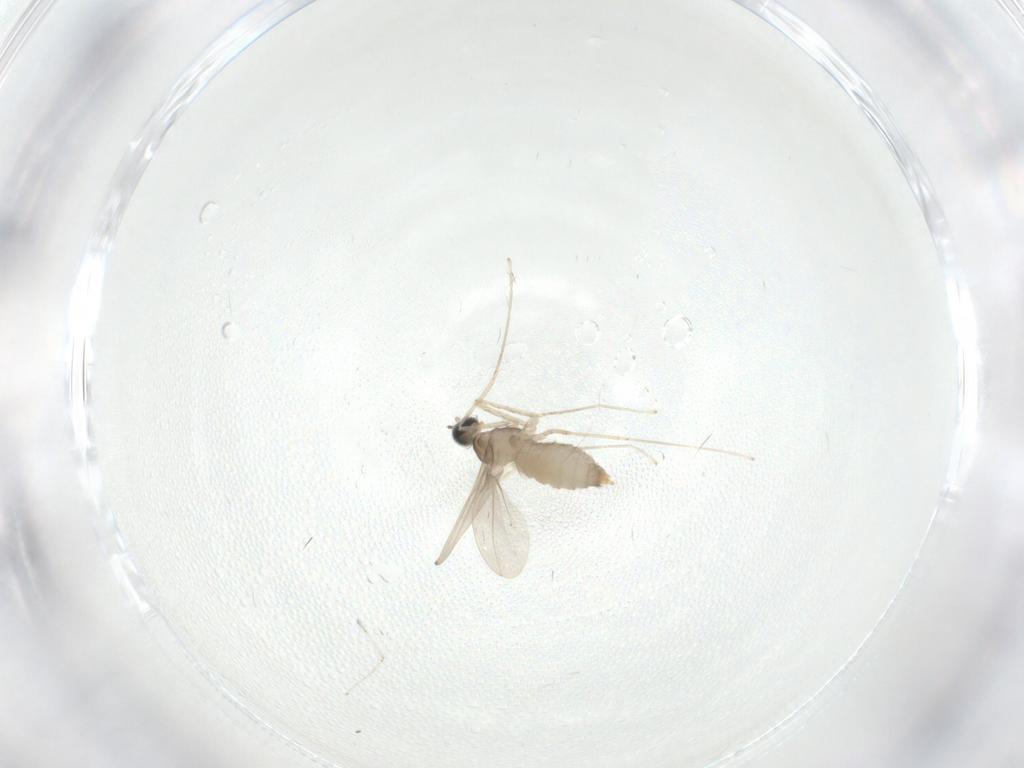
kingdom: Animalia
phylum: Arthropoda
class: Insecta
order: Diptera
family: Cecidomyiidae
